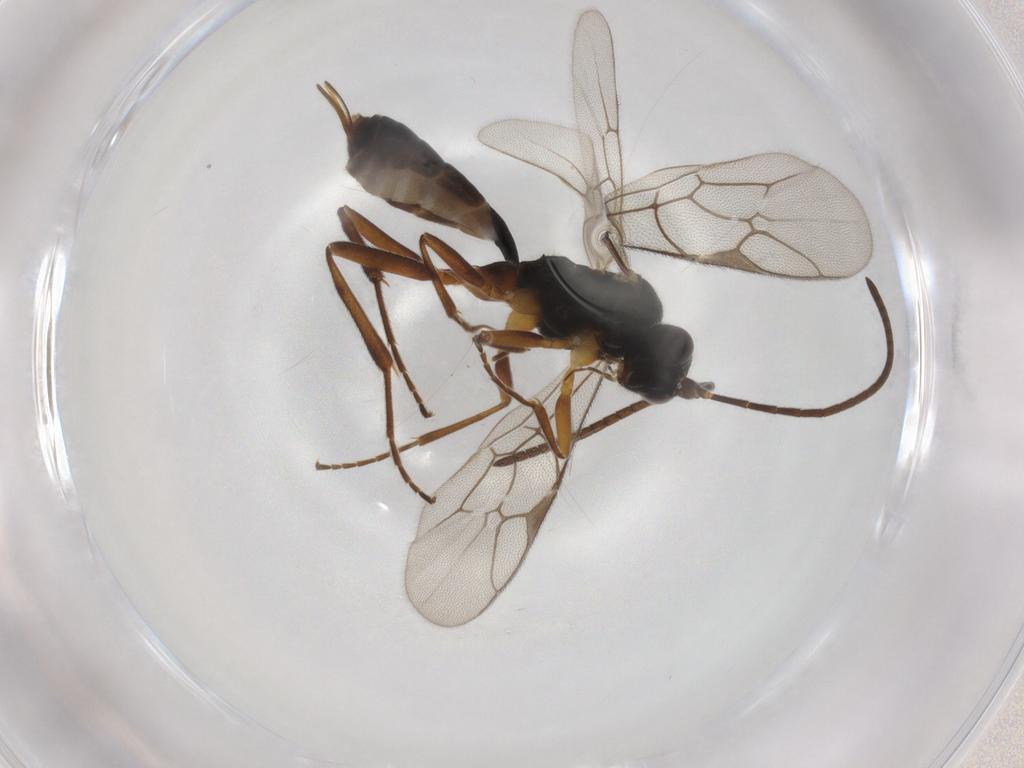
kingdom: Animalia
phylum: Arthropoda
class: Insecta
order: Hymenoptera
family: Ichneumonidae
